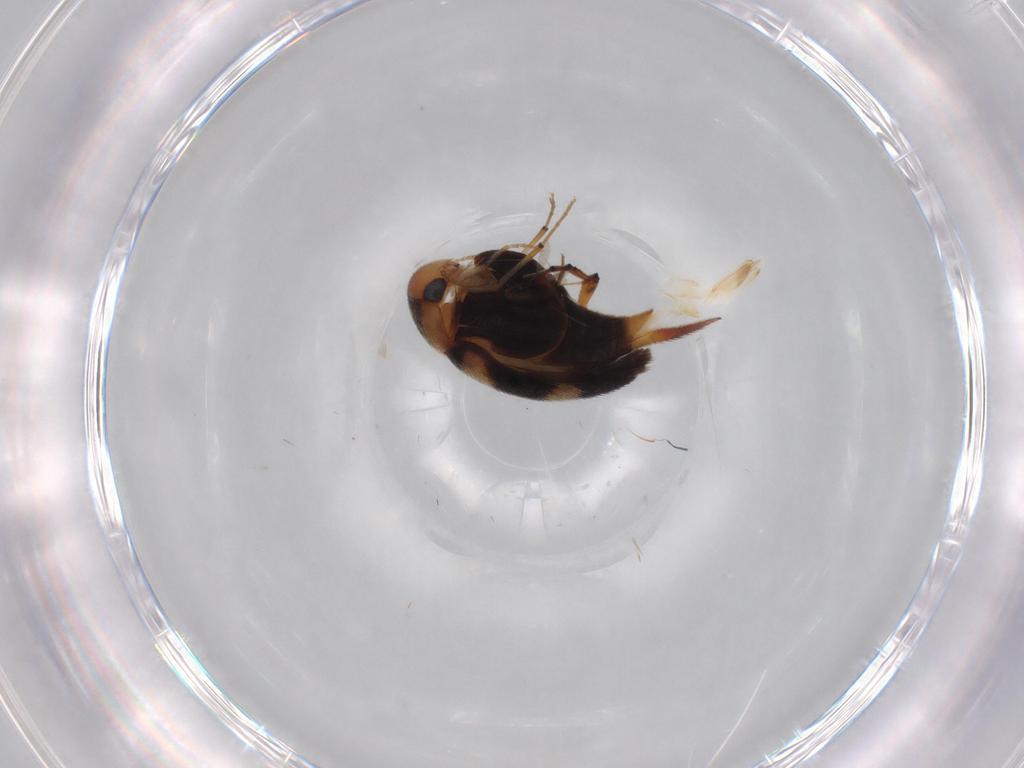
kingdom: Animalia
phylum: Arthropoda
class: Insecta
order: Coleoptera
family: Mordellidae
